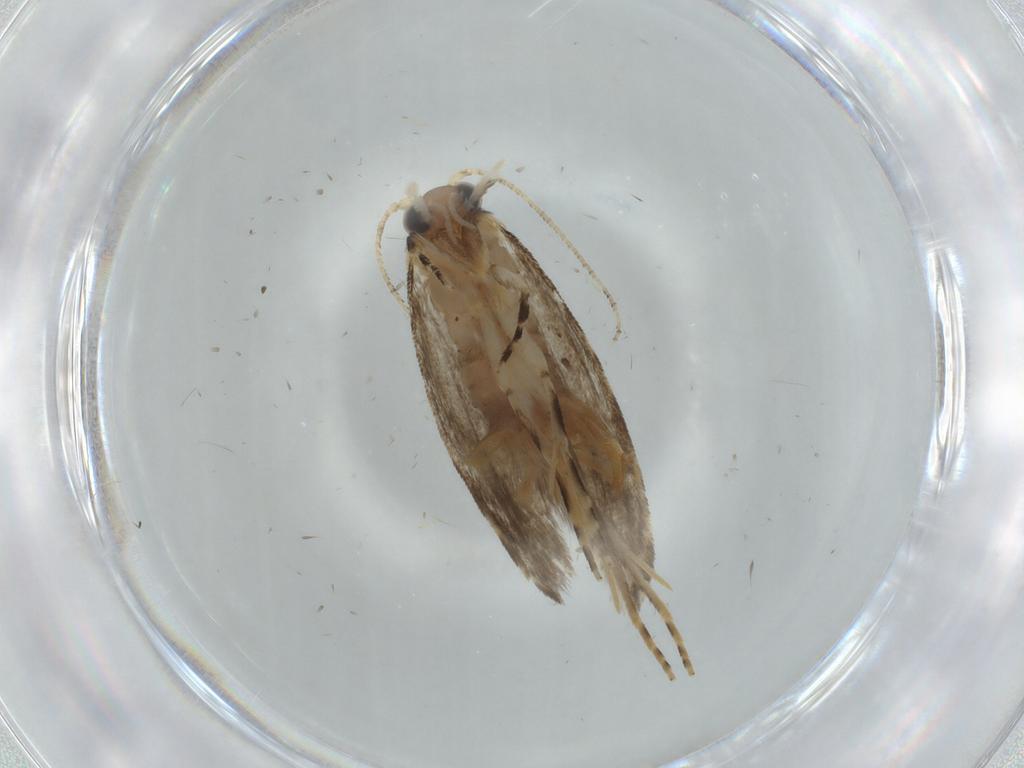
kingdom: Animalia
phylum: Arthropoda
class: Insecta
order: Lepidoptera
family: Tineidae
